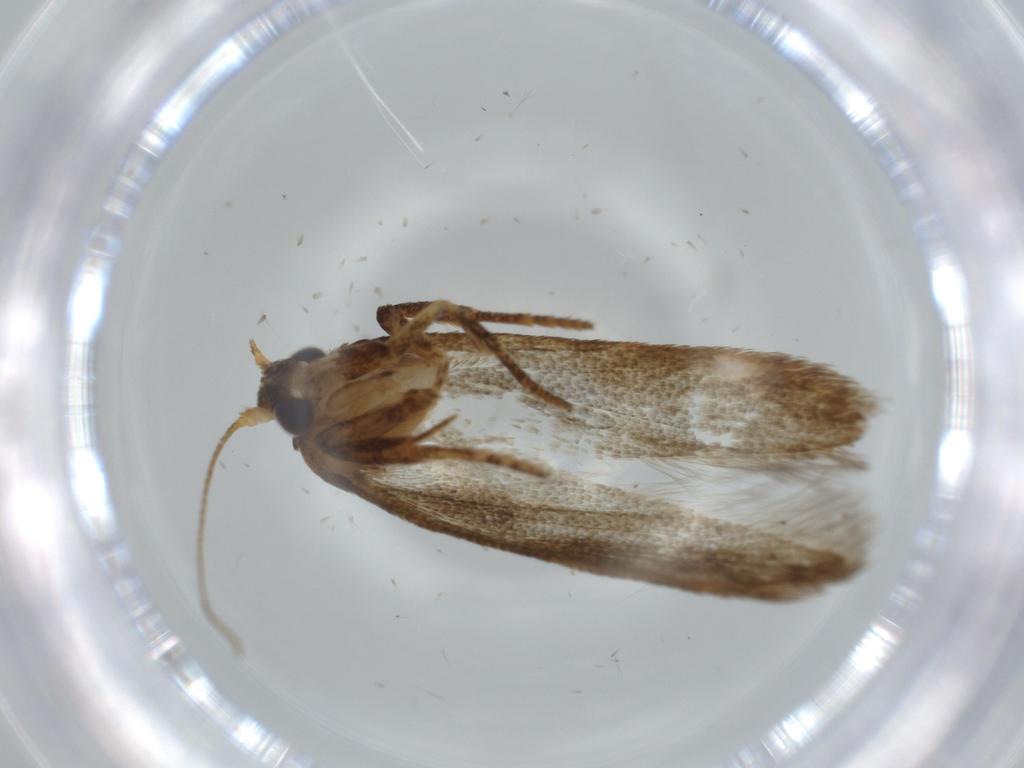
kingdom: Animalia
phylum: Arthropoda
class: Insecta
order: Lepidoptera
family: Blastobasidae
